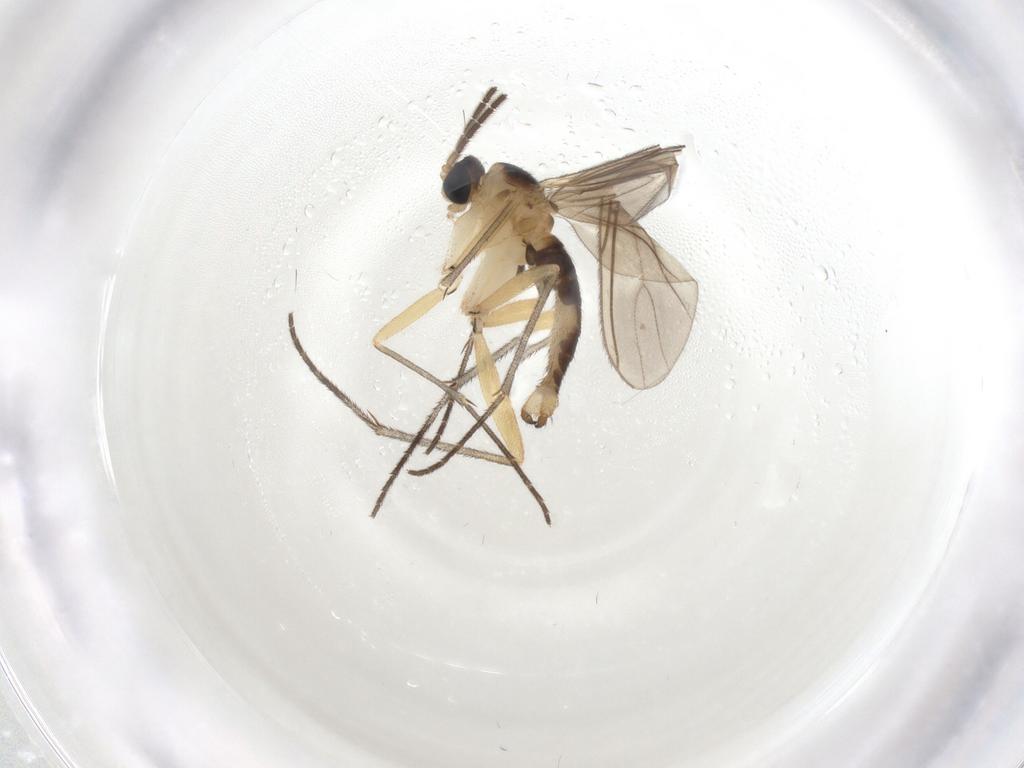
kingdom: Animalia
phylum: Arthropoda
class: Insecta
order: Diptera
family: Sciaridae
